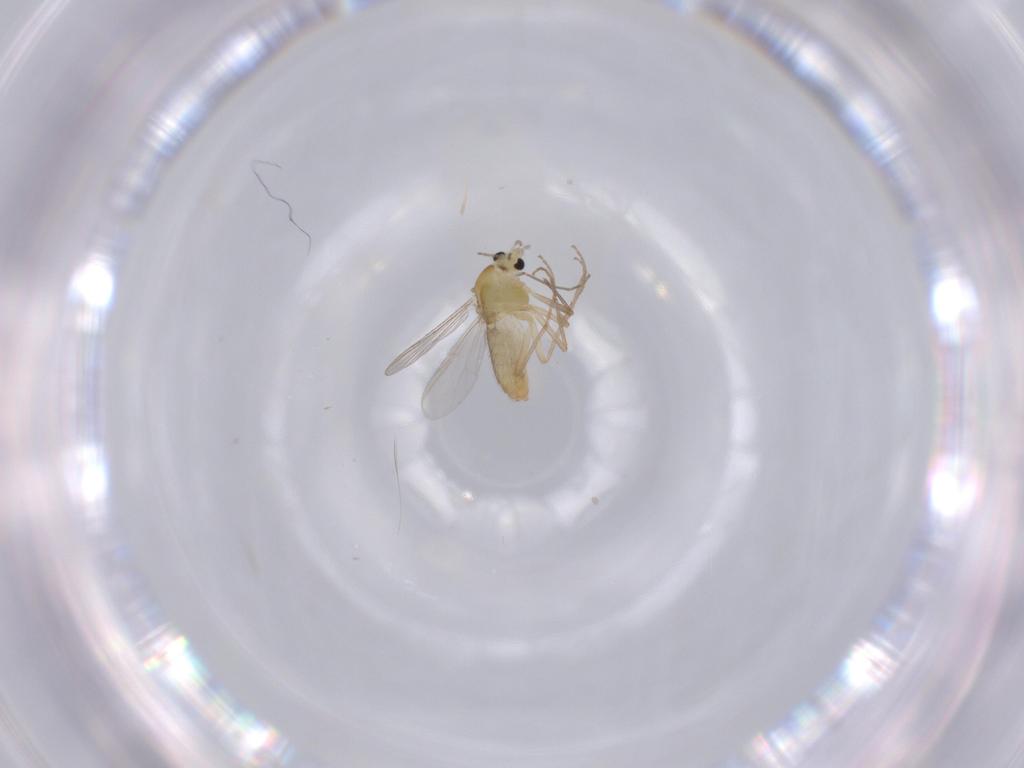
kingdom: Animalia
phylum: Arthropoda
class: Insecta
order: Diptera
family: Chironomidae
